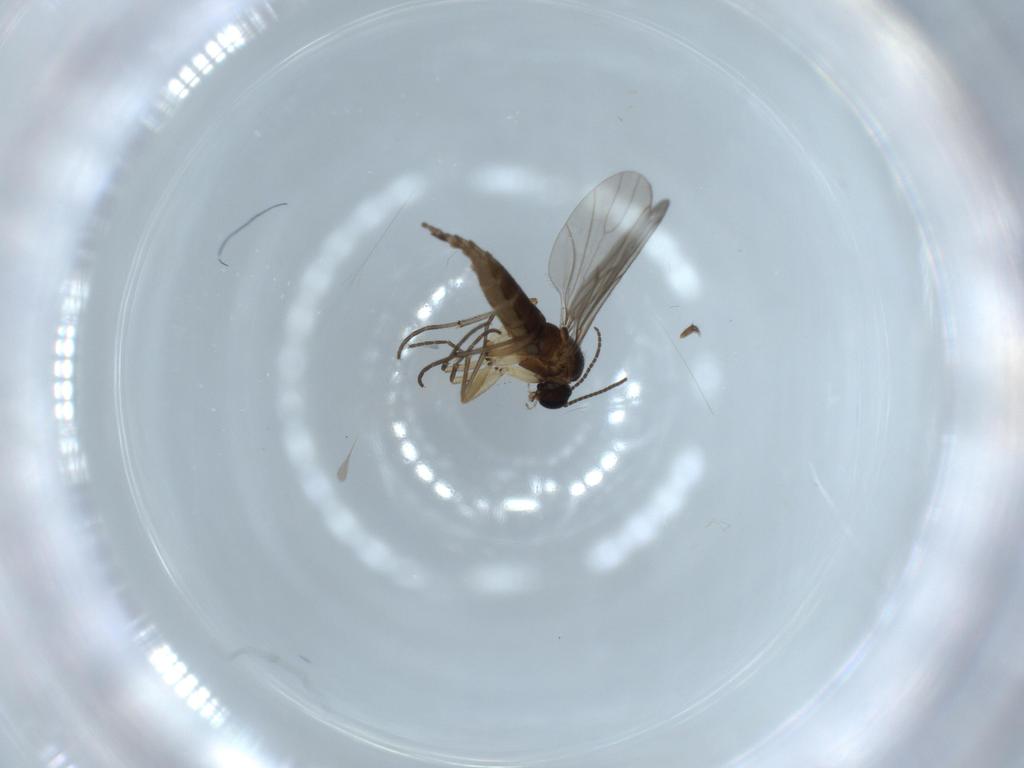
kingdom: Animalia
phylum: Arthropoda
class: Insecta
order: Diptera
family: Sciaridae
